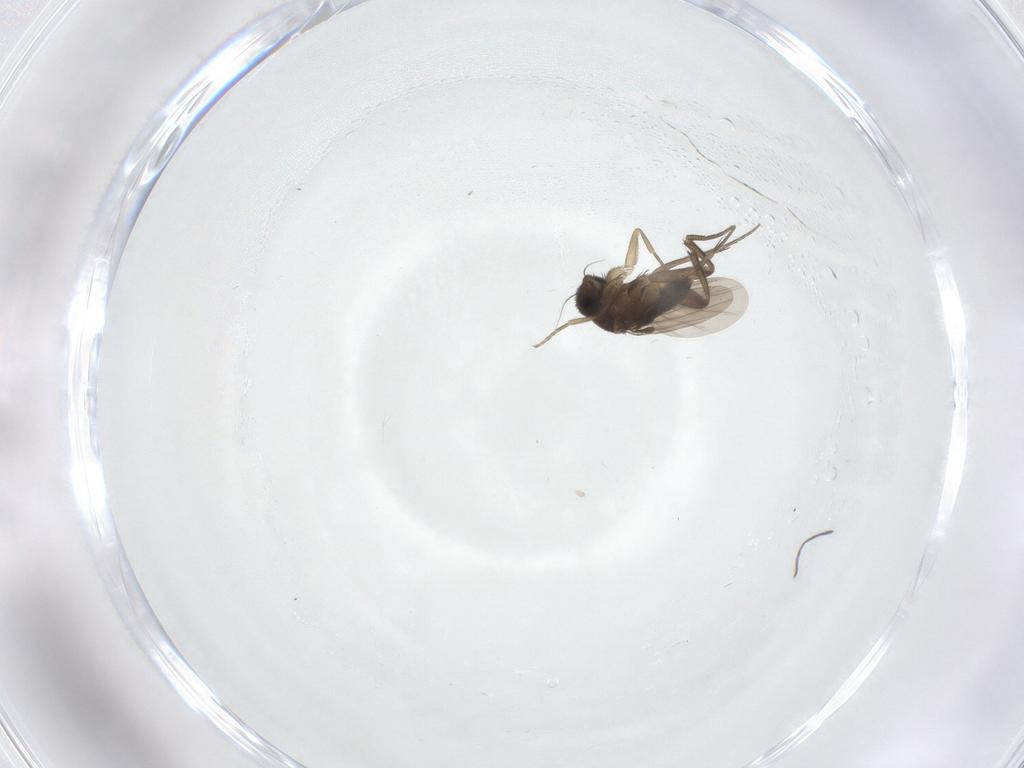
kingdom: Animalia
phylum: Arthropoda
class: Insecta
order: Diptera
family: Phoridae
